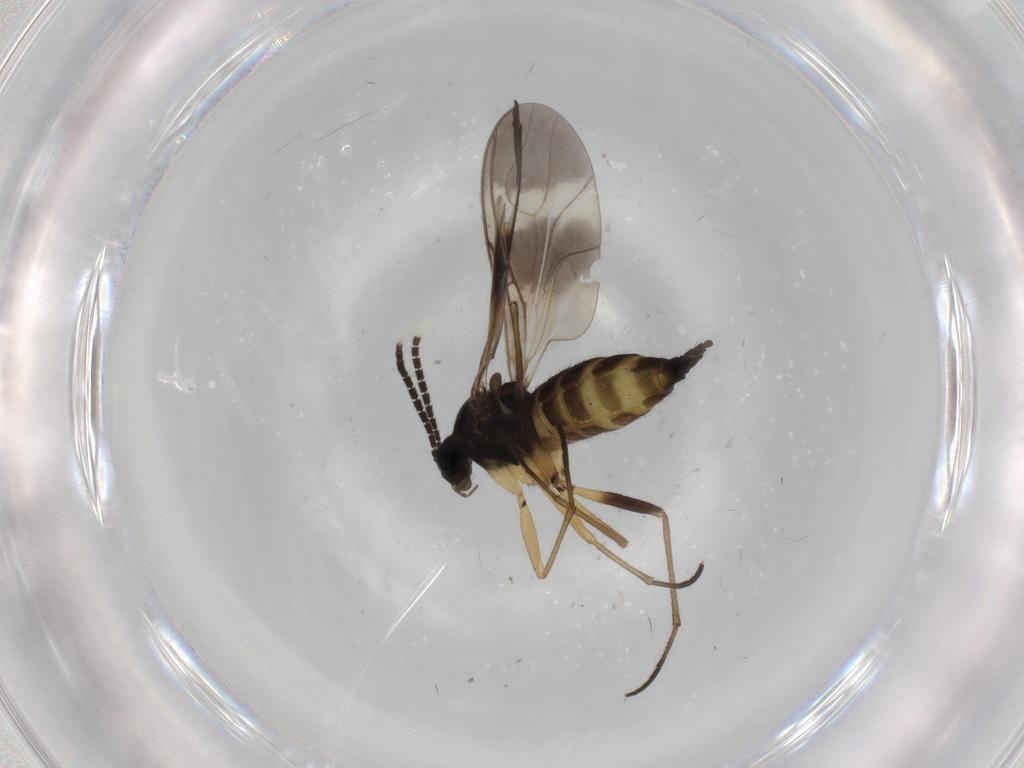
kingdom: Animalia
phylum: Arthropoda
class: Insecta
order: Diptera
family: Sciaridae
